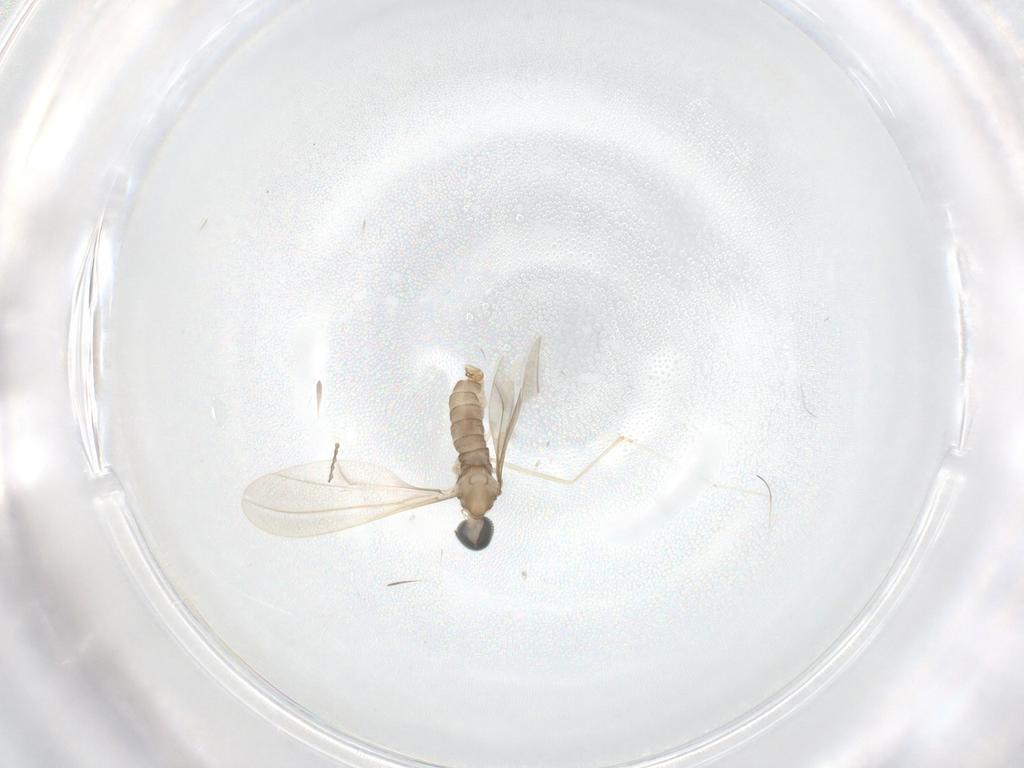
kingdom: Animalia
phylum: Arthropoda
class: Insecta
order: Diptera
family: Cecidomyiidae
